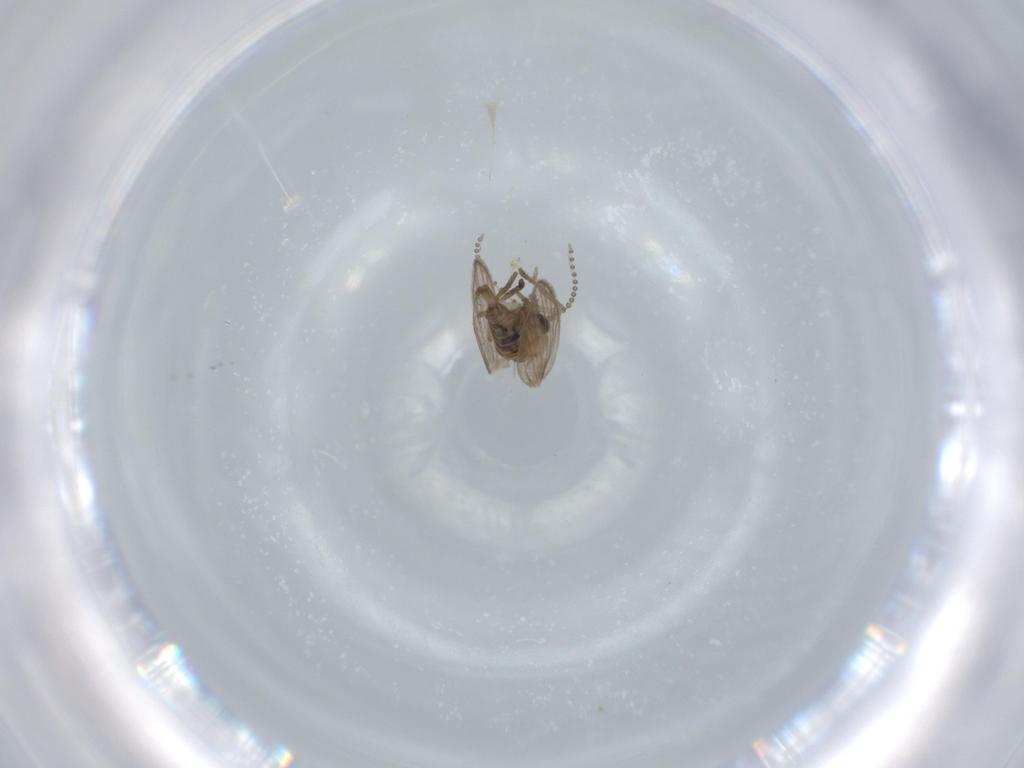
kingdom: Animalia
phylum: Arthropoda
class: Insecta
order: Diptera
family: Psychodidae
